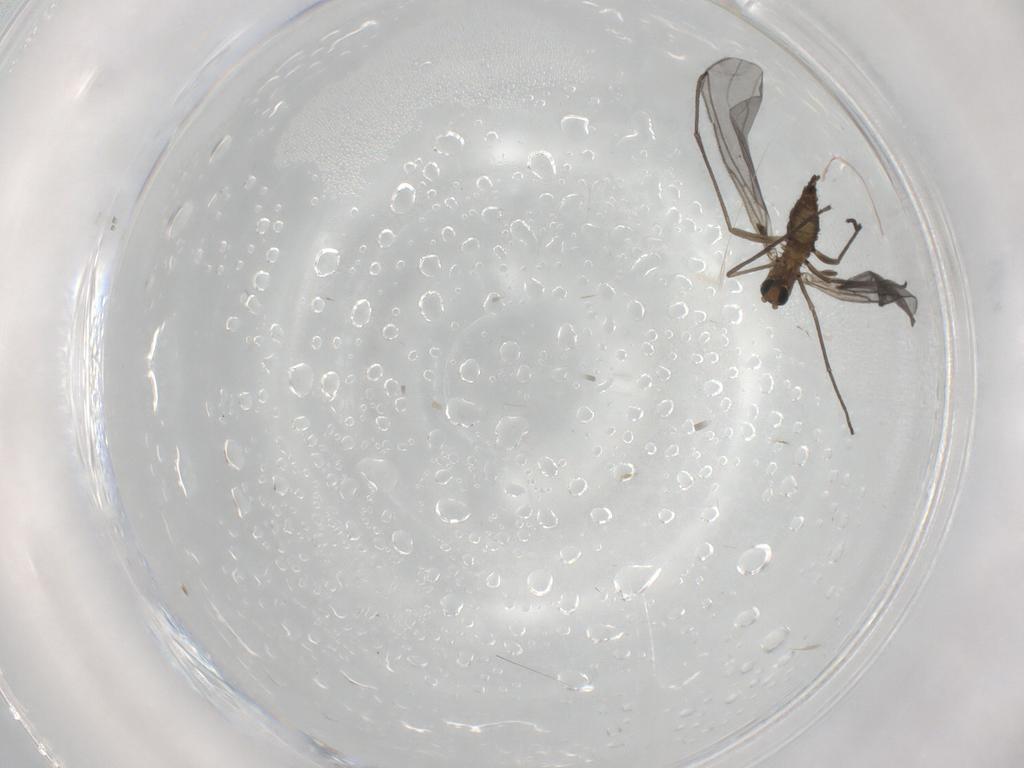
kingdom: Animalia
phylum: Arthropoda
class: Insecta
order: Diptera
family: Sciaridae
